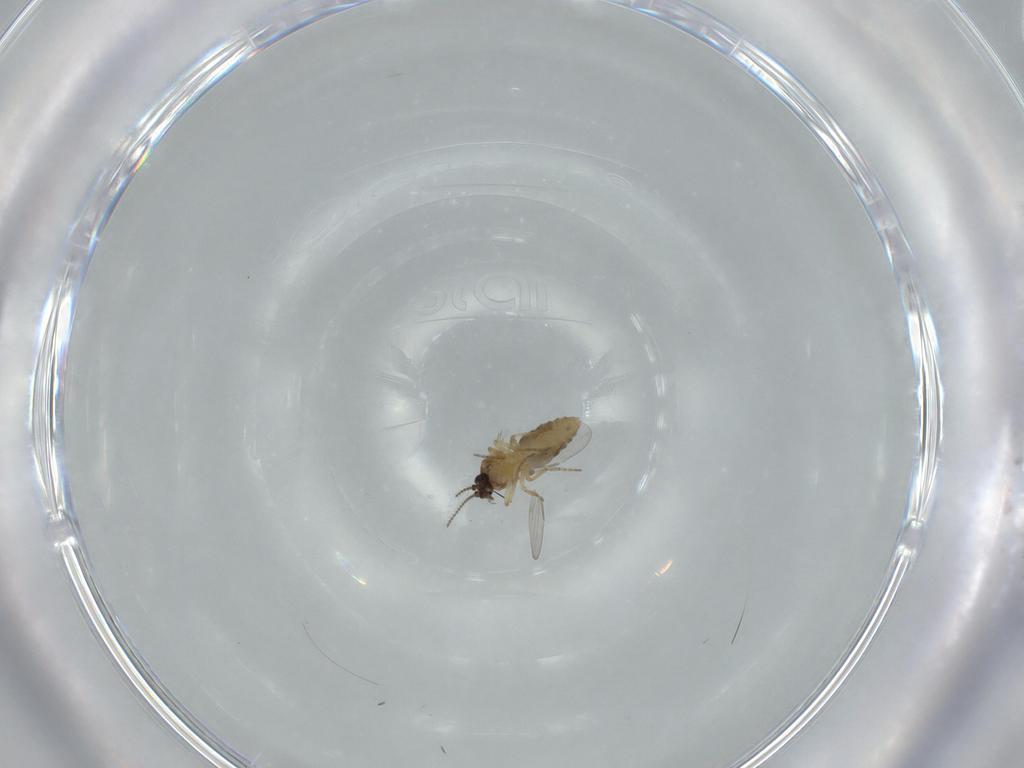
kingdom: Animalia
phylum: Arthropoda
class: Insecta
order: Diptera
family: Ceratopogonidae
